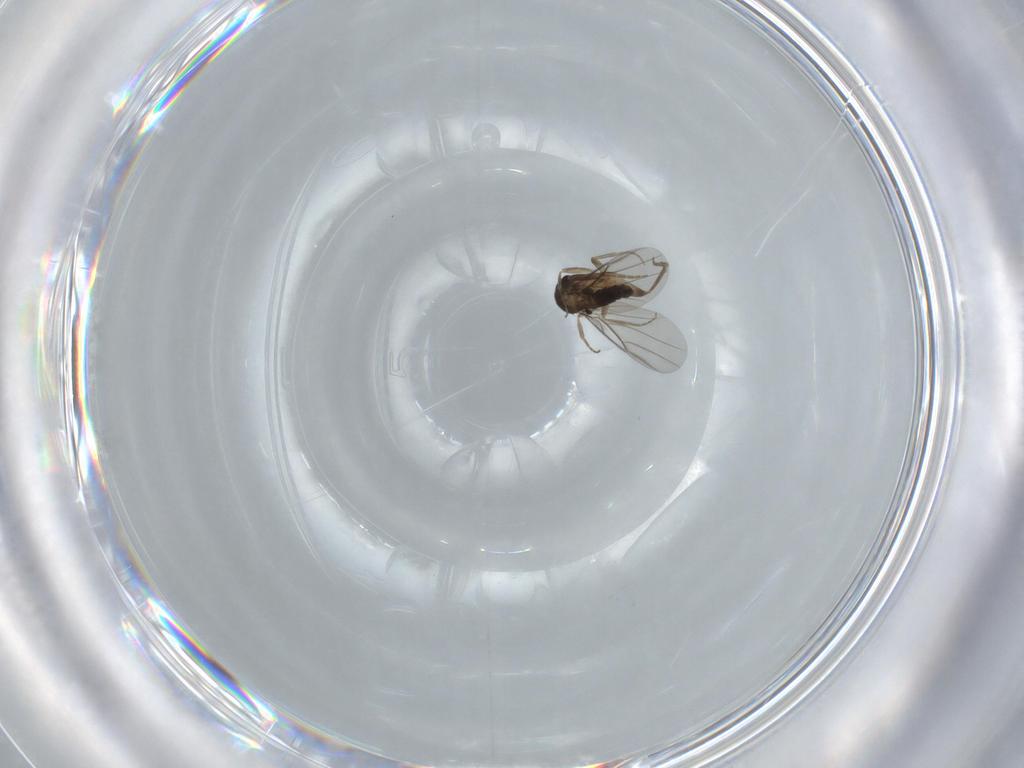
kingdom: Animalia
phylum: Arthropoda
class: Insecta
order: Diptera
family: Phoridae
